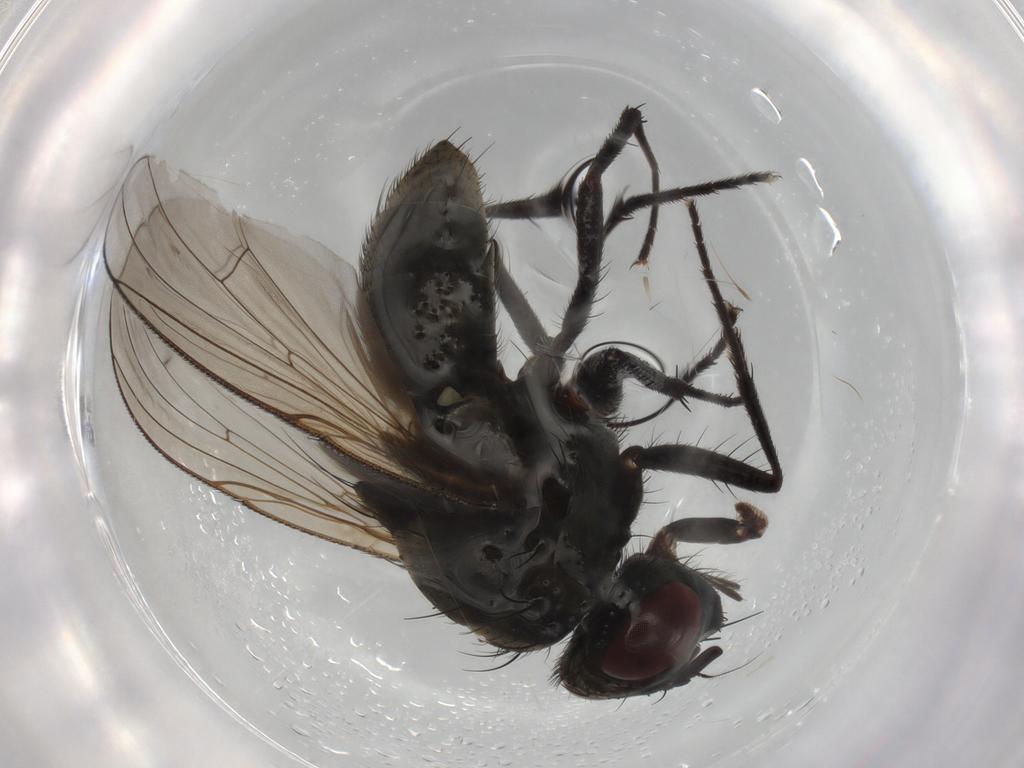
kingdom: Animalia
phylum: Arthropoda
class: Insecta
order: Diptera
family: Muscidae
